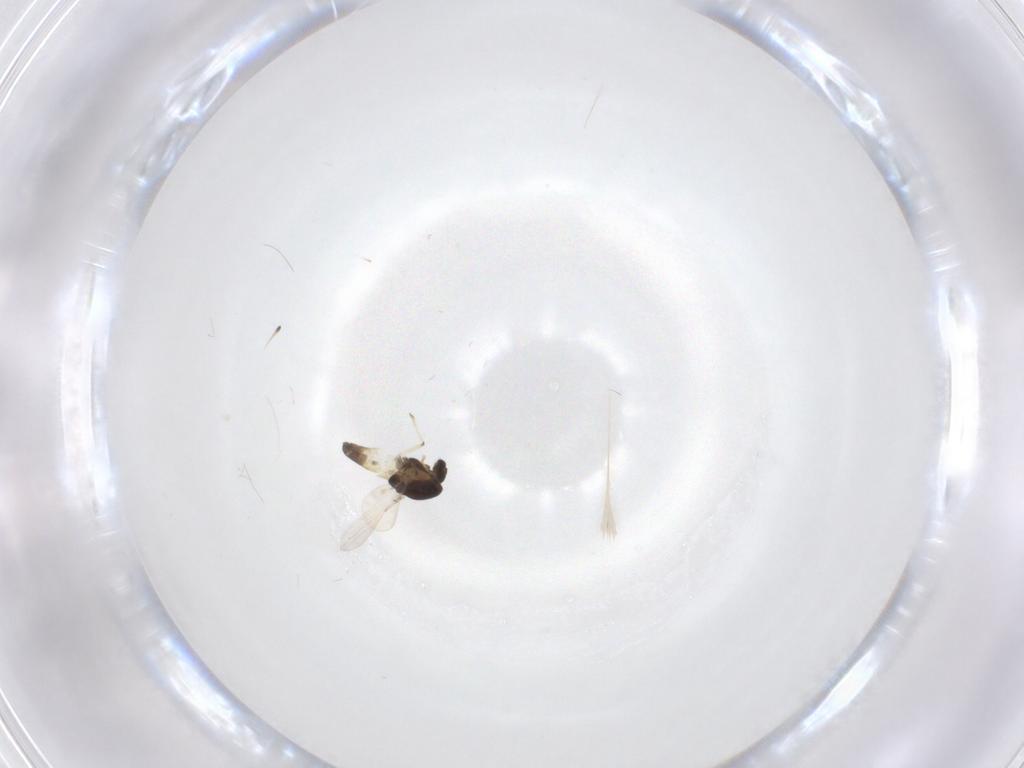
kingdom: Animalia
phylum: Arthropoda
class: Insecta
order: Diptera
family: Chironomidae
